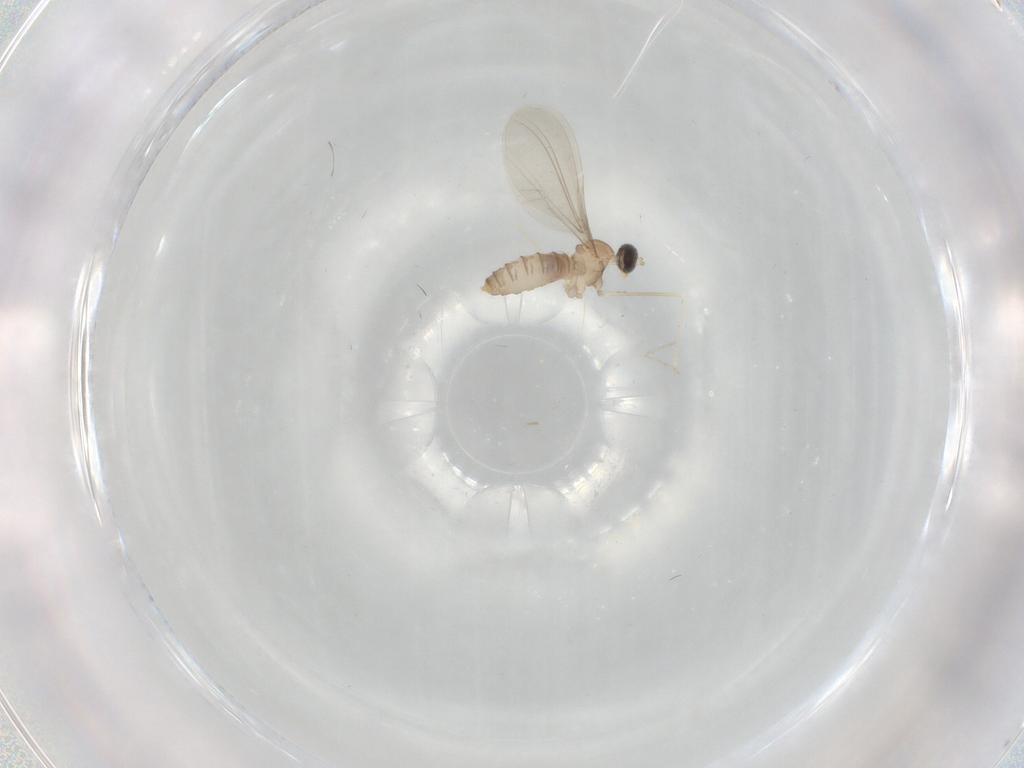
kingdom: Animalia
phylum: Arthropoda
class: Insecta
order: Diptera
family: Cecidomyiidae
